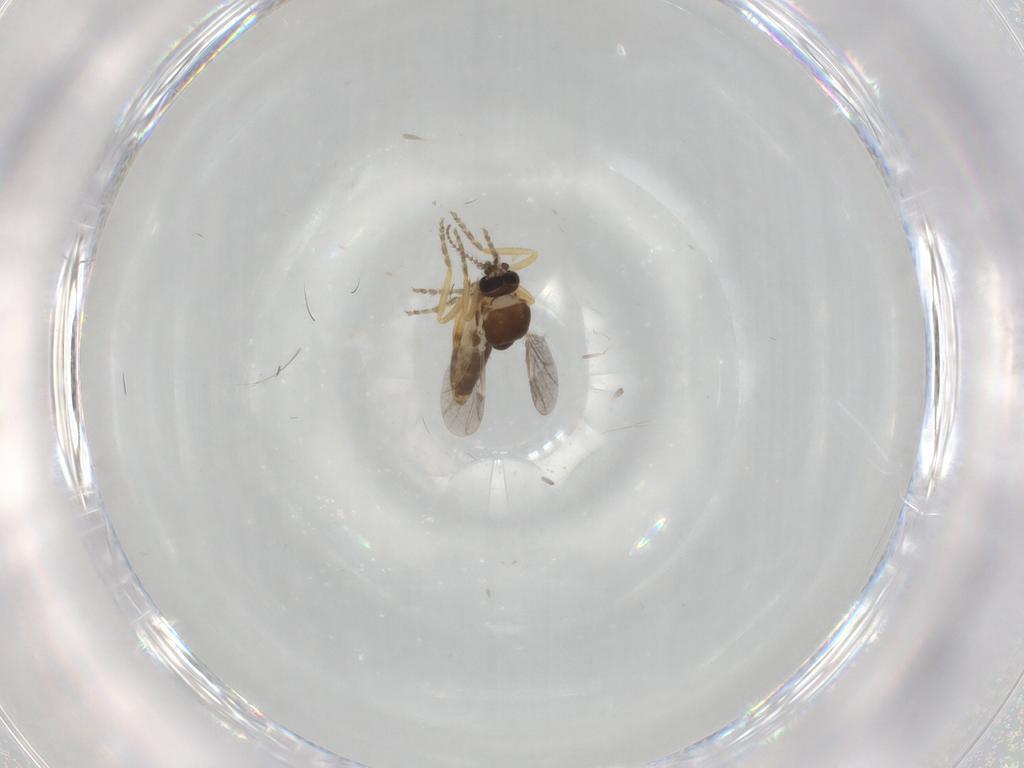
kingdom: Animalia
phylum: Arthropoda
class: Insecta
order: Diptera
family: Ceratopogonidae
